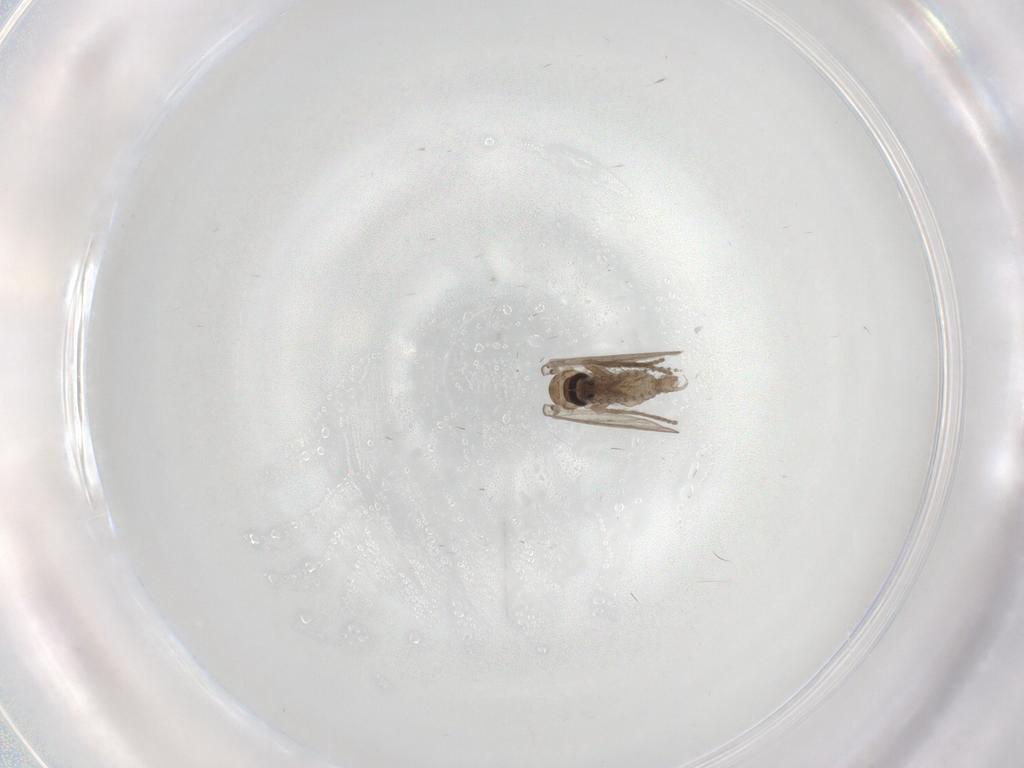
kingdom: Animalia
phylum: Arthropoda
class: Insecta
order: Diptera
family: Psychodidae
